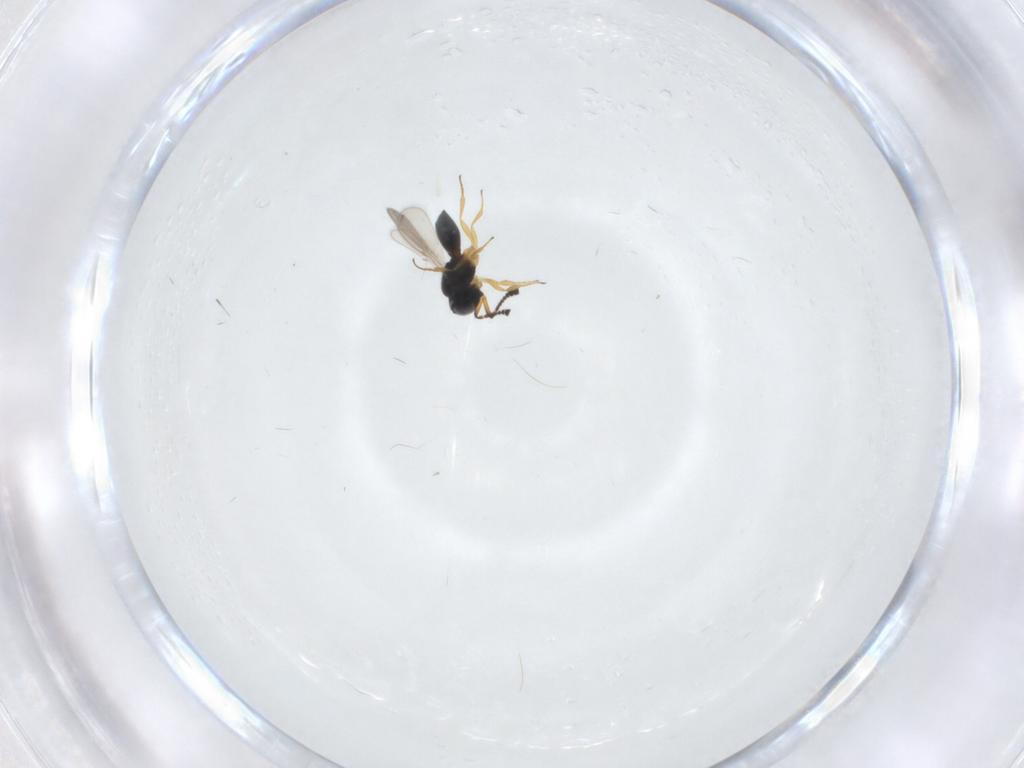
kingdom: Animalia
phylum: Arthropoda
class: Insecta
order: Hymenoptera
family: Scelionidae
